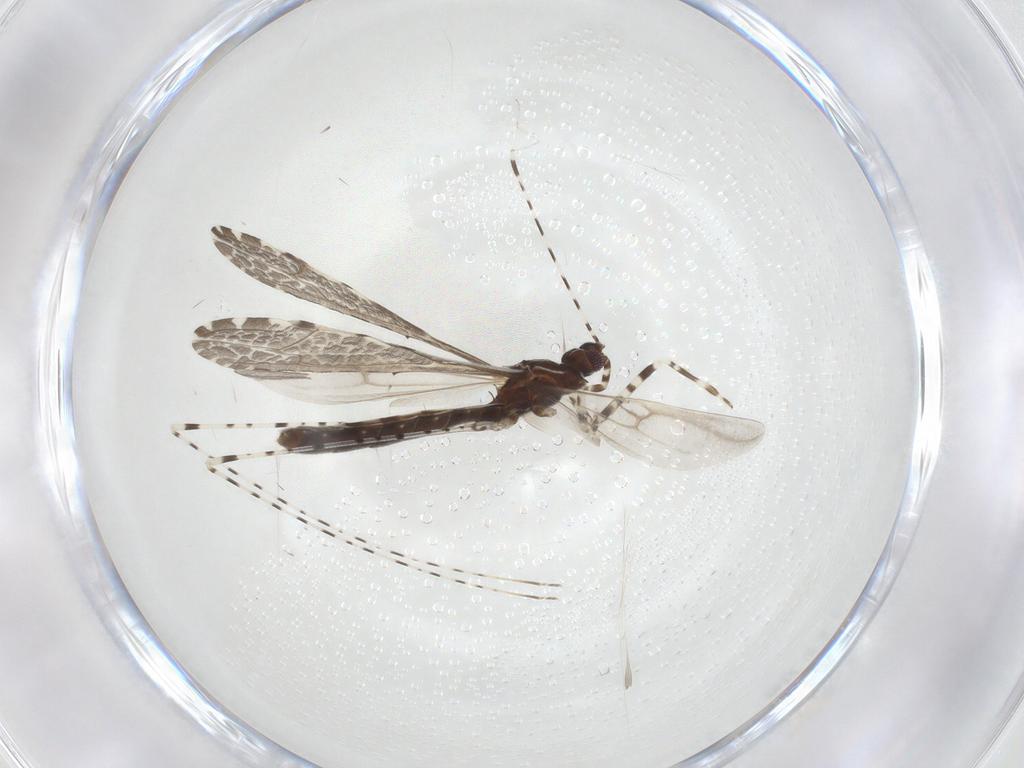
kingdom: Animalia
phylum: Arthropoda
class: Insecta
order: Hemiptera
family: Reduviidae
